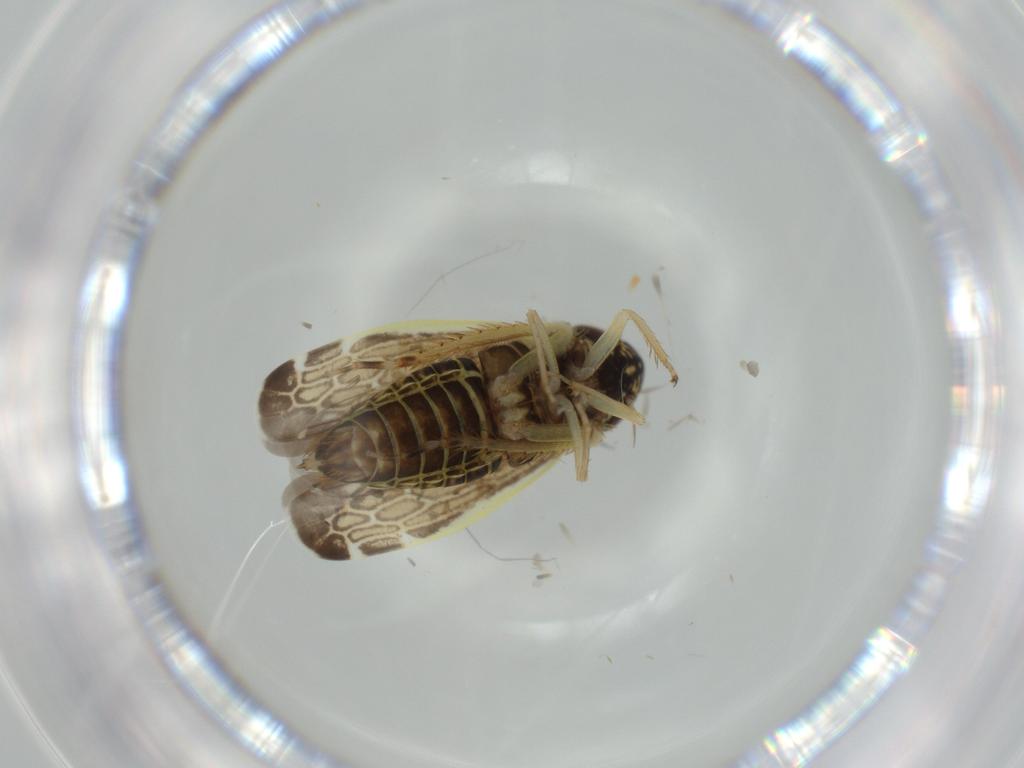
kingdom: Animalia
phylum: Arthropoda
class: Insecta
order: Hemiptera
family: Cicadellidae
